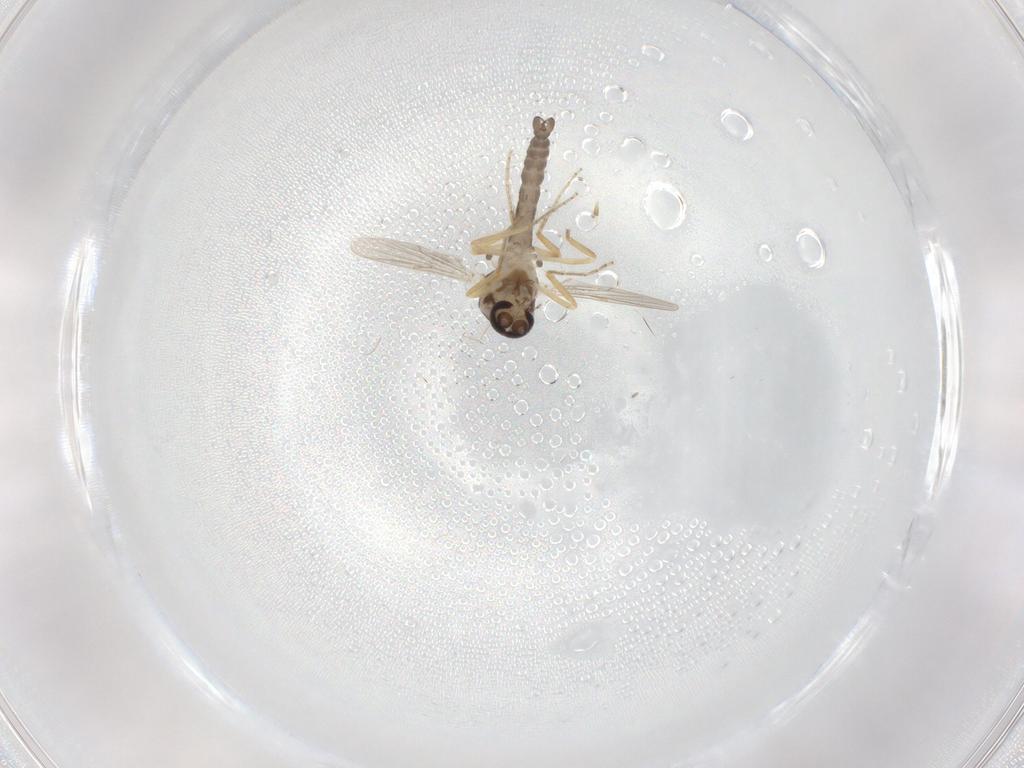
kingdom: Animalia
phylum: Arthropoda
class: Insecta
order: Diptera
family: Ceratopogonidae
